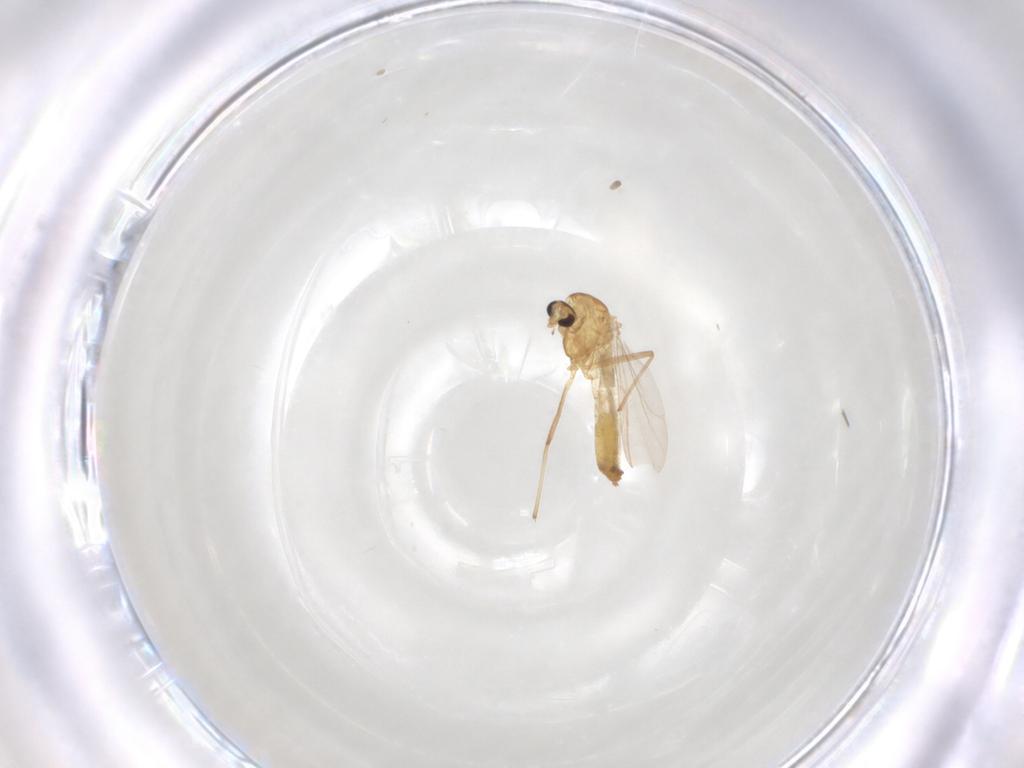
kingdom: Animalia
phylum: Arthropoda
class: Insecta
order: Diptera
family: Chironomidae
